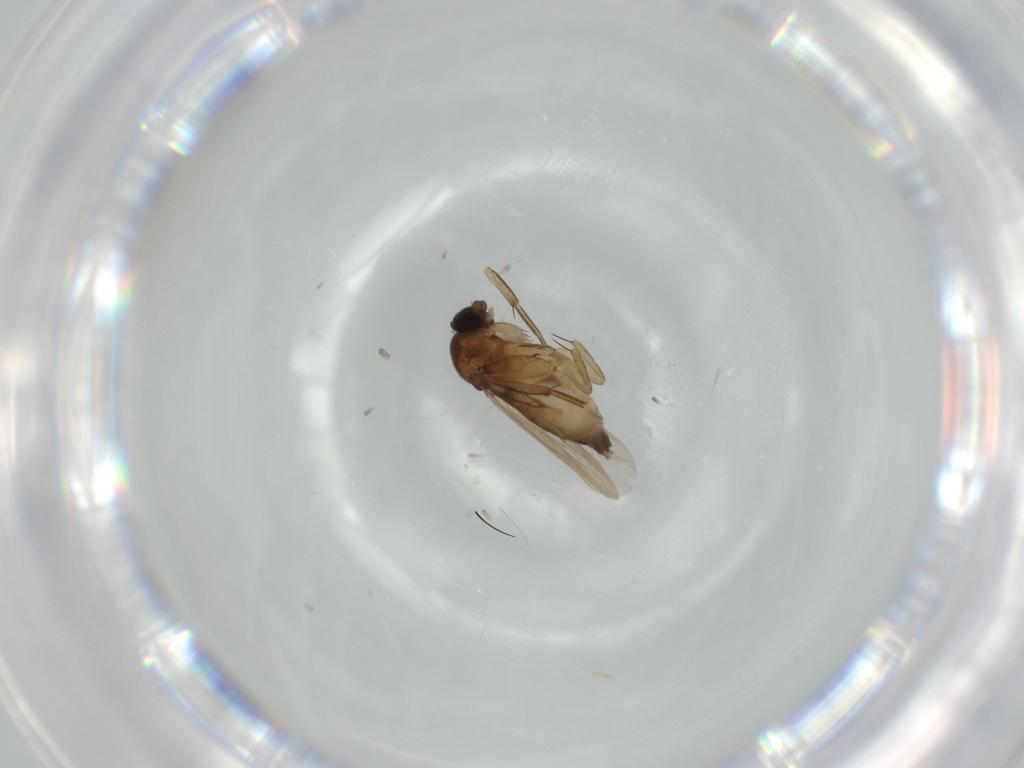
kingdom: Animalia
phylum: Arthropoda
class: Insecta
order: Diptera
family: Sciaridae
